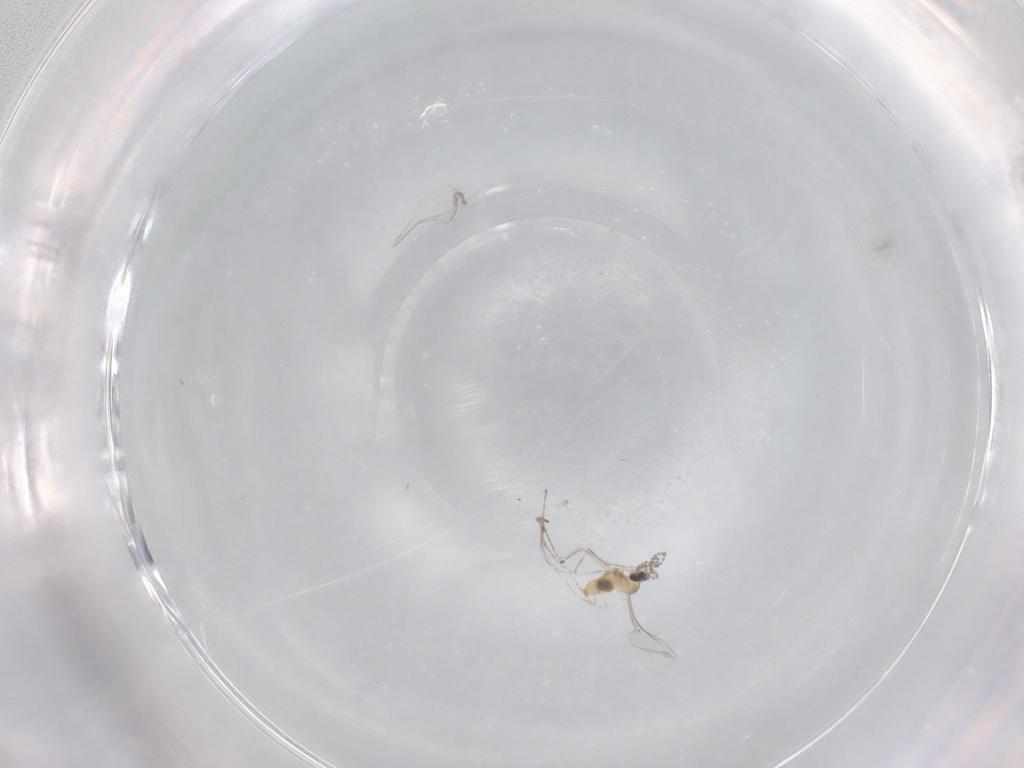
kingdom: Animalia
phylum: Arthropoda
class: Insecta
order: Diptera
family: Cecidomyiidae
